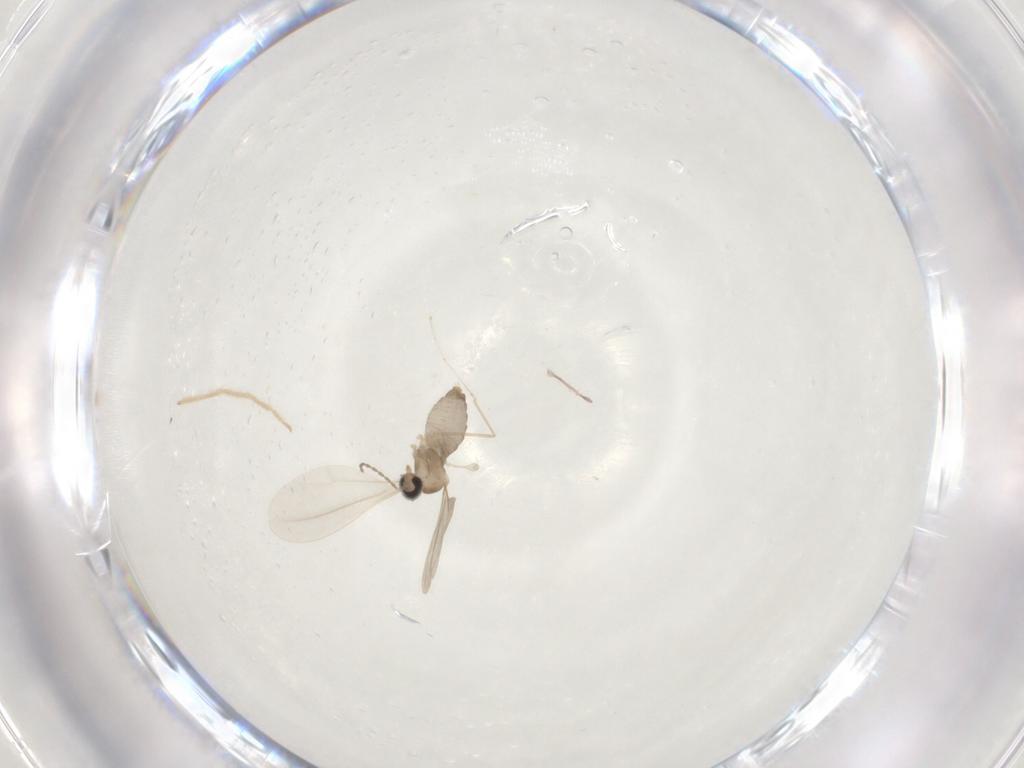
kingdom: Animalia
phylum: Arthropoda
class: Insecta
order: Diptera
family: Cecidomyiidae
